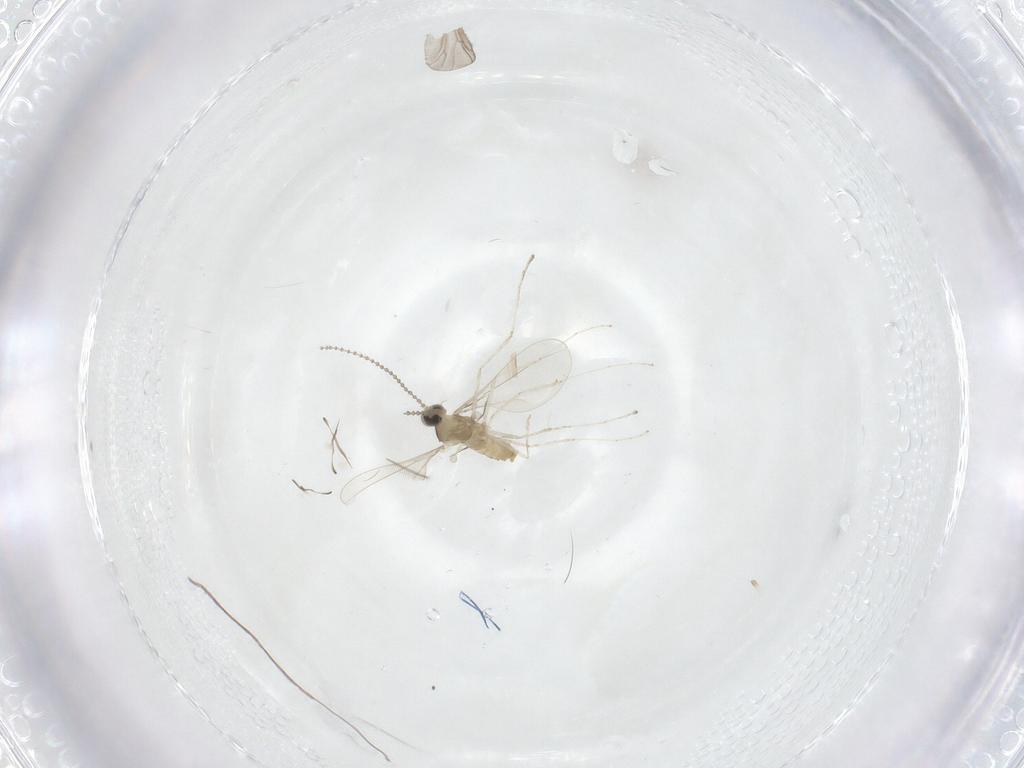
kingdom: Animalia
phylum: Arthropoda
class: Insecta
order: Diptera
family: Cecidomyiidae
